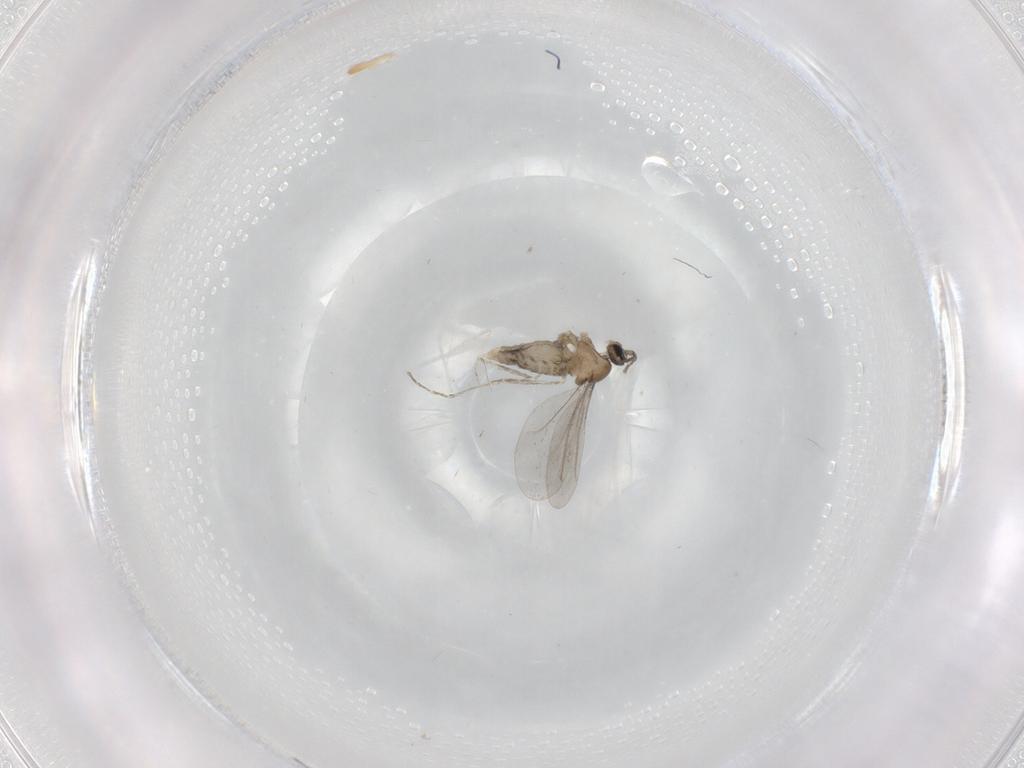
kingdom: Animalia
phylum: Arthropoda
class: Insecta
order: Diptera
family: Cecidomyiidae
